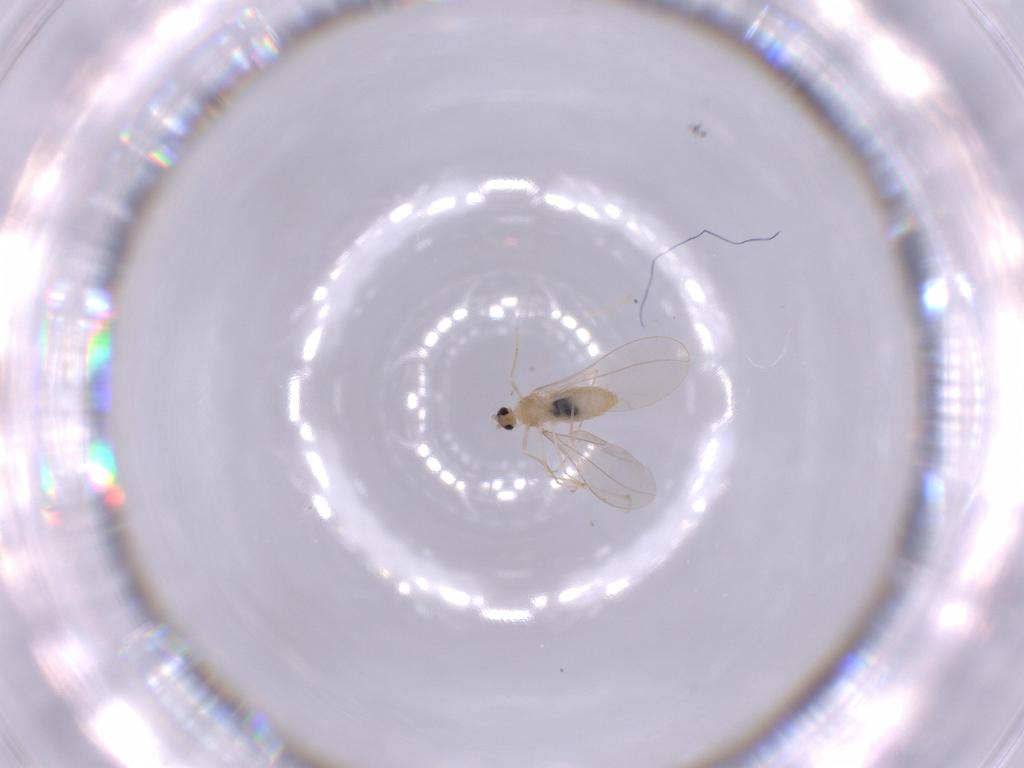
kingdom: Animalia
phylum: Arthropoda
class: Insecta
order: Diptera
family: Cecidomyiidae
